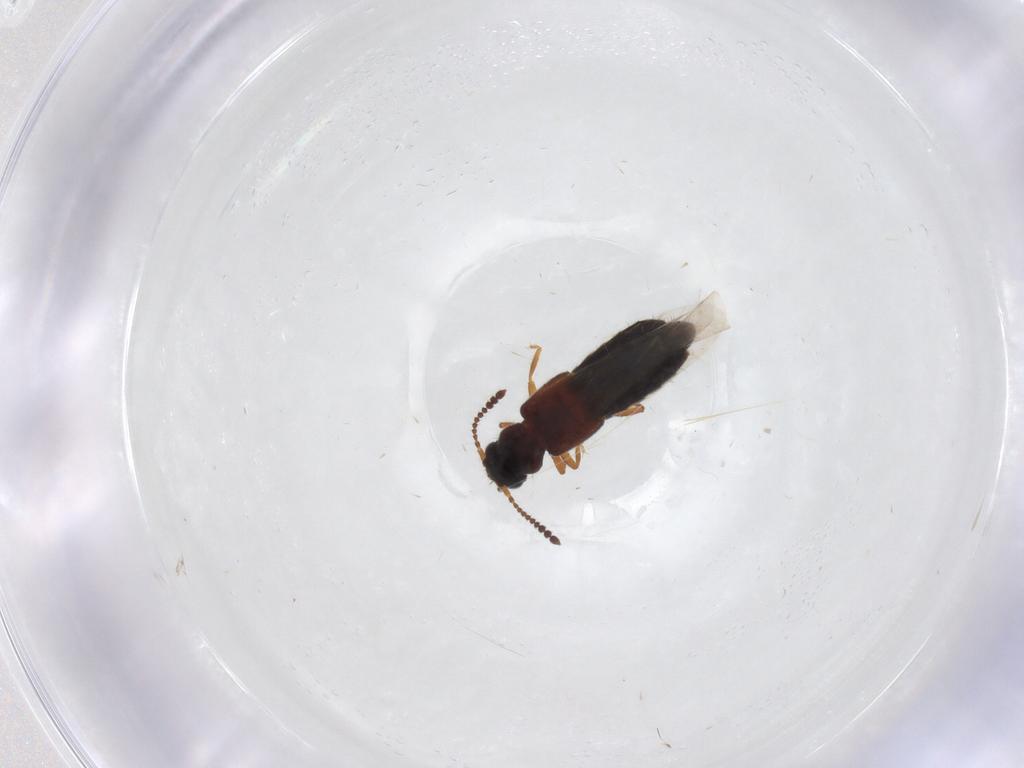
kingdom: Animalia
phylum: Arthropoda
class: Insecta
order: Coleoptera
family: Staphylinidae
